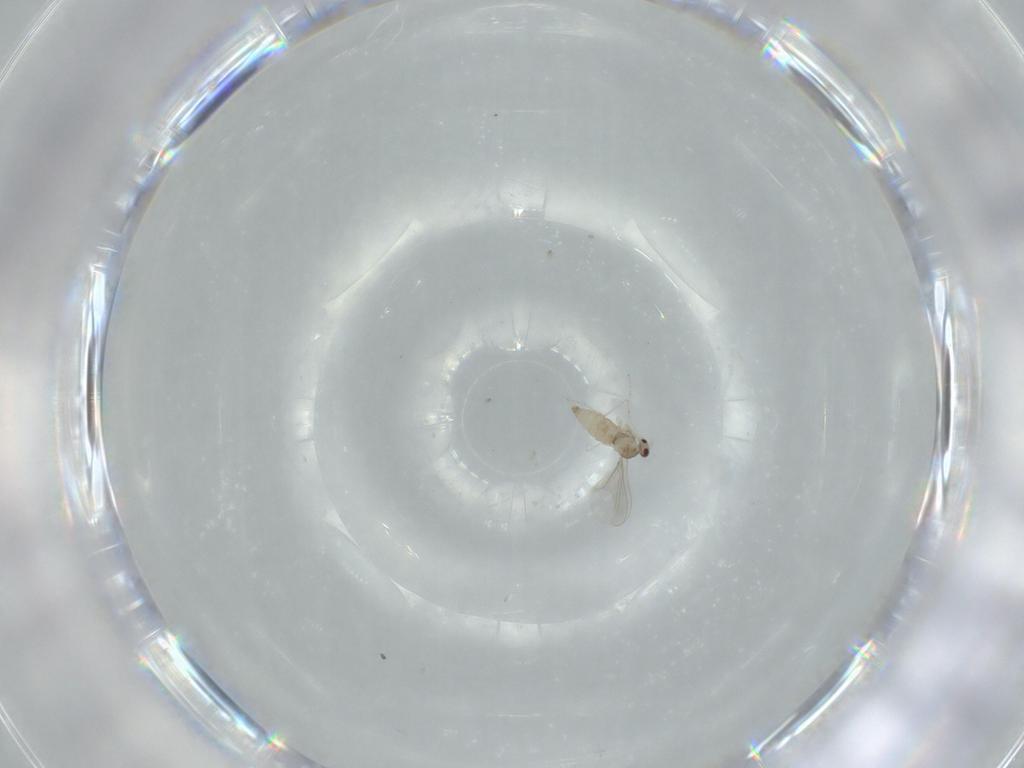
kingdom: Animalia
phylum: Arthropoda
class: Insecta
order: Diptera
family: Cecidomyiidae
